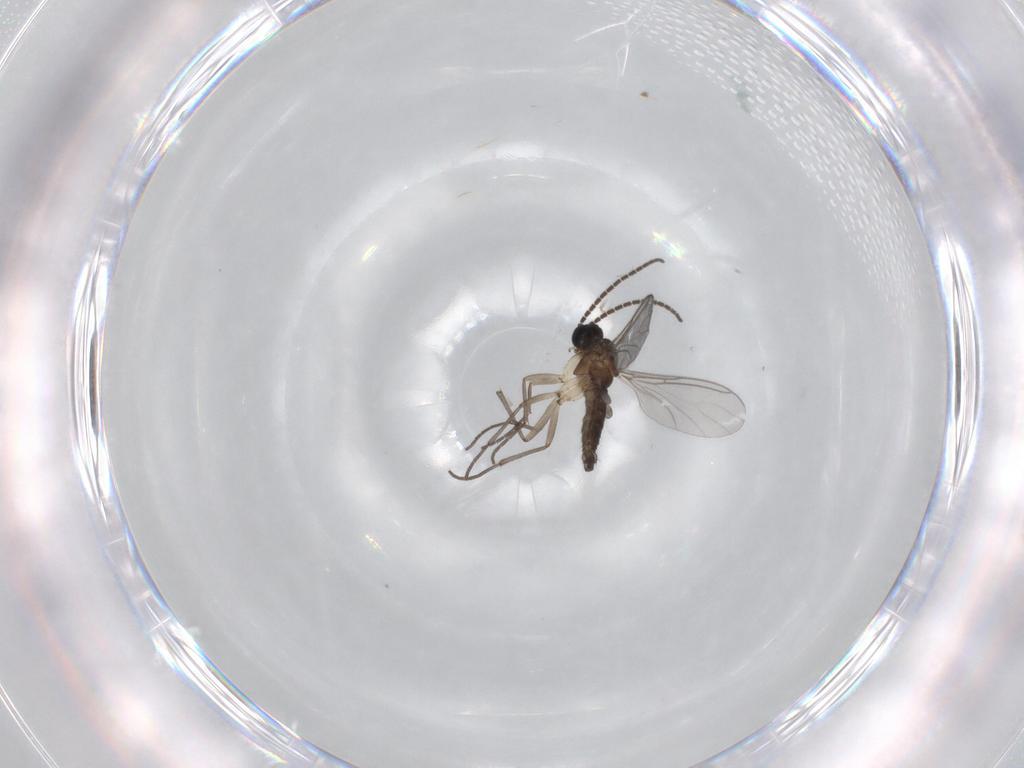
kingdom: Animalia
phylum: Arthropoda
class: Insecta
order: Diptera
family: Sciaridae
